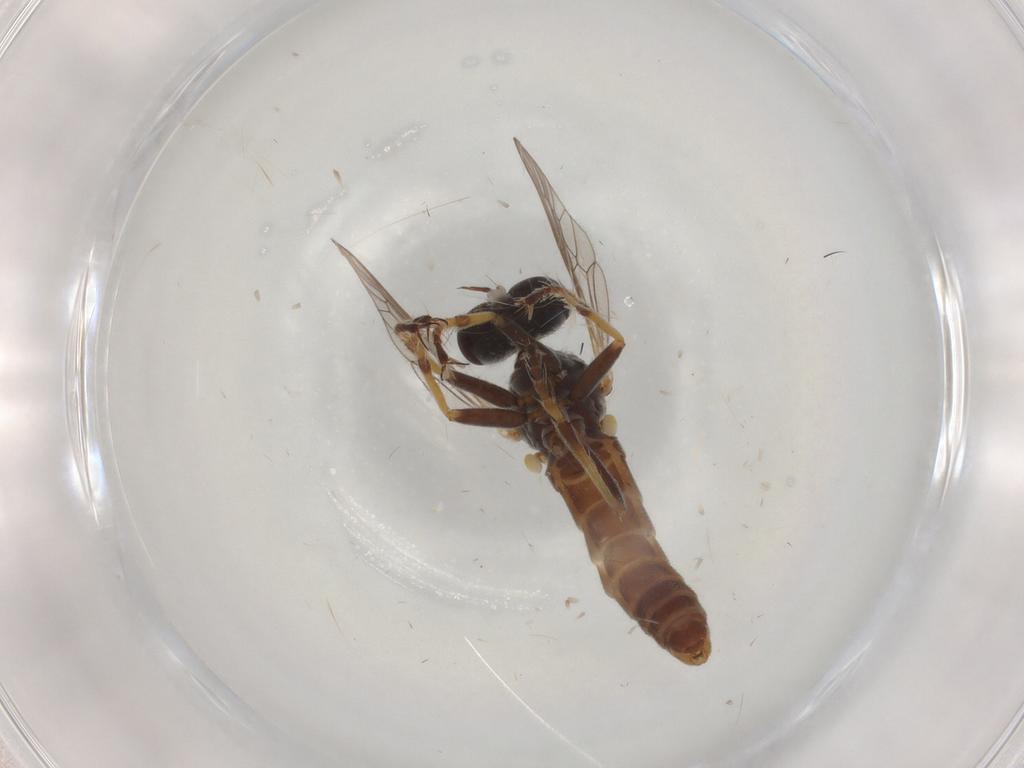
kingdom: Animalia
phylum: Arthropoda
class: Insecta
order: Diptera
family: Asilidae
